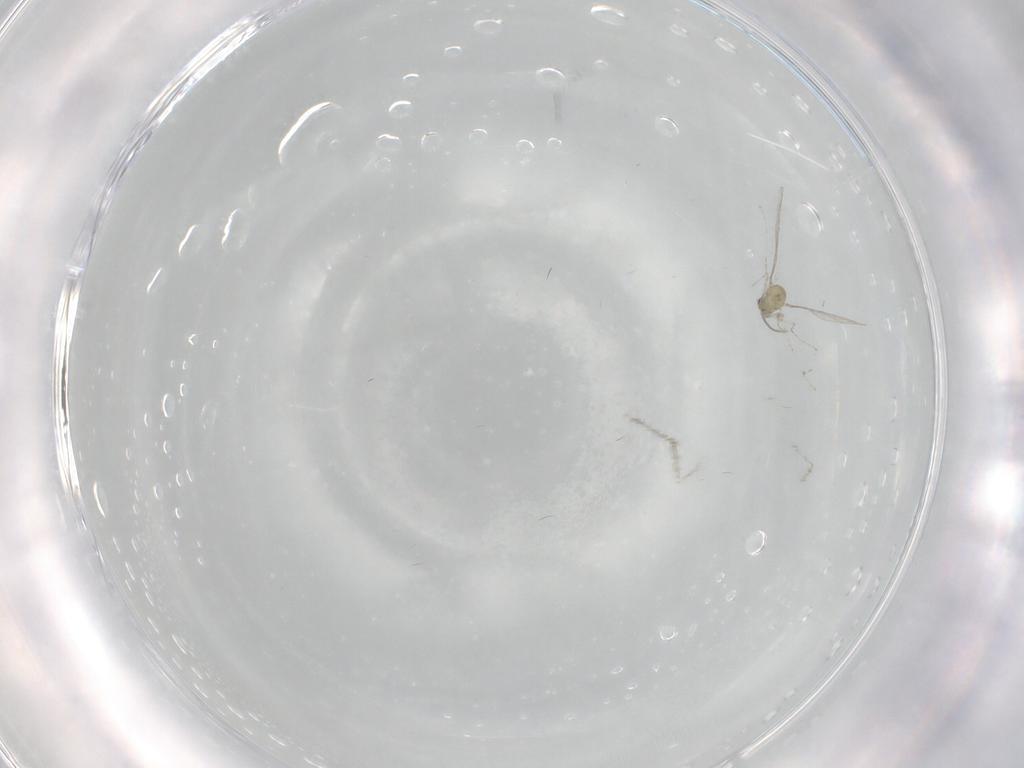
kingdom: Animalia
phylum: Arthropoda
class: Insecta
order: Diptera
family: Cecidomyiidae
